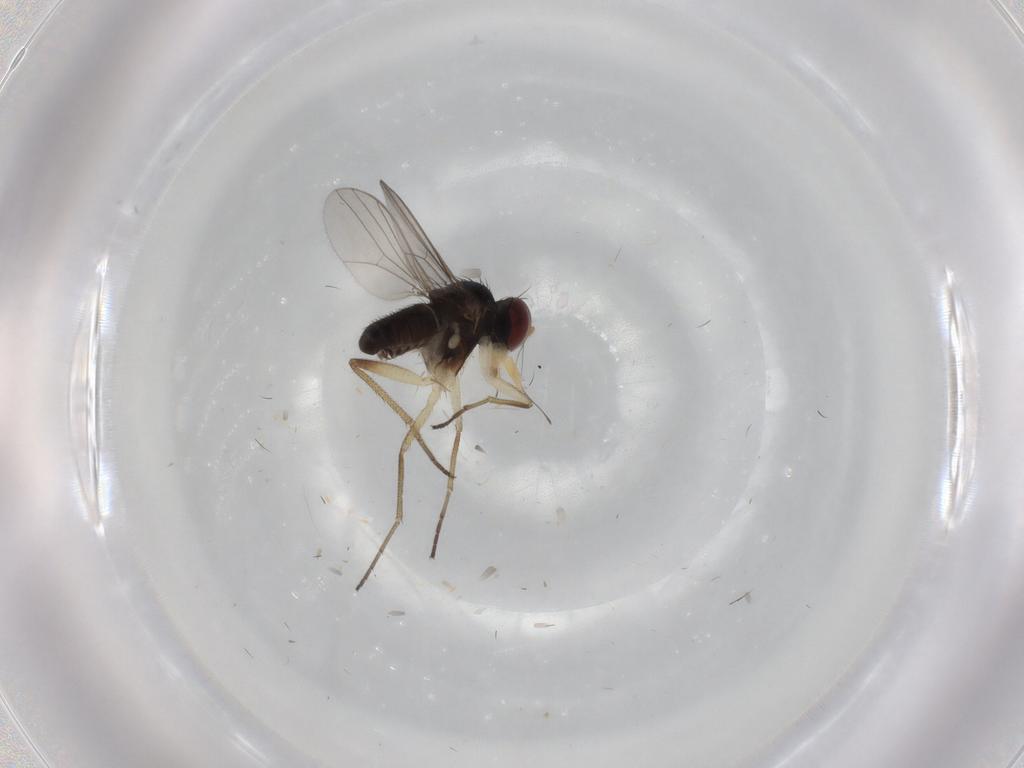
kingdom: Animalia
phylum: Arthropoda
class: Insecta
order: Diptera
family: Dolichopodidae
